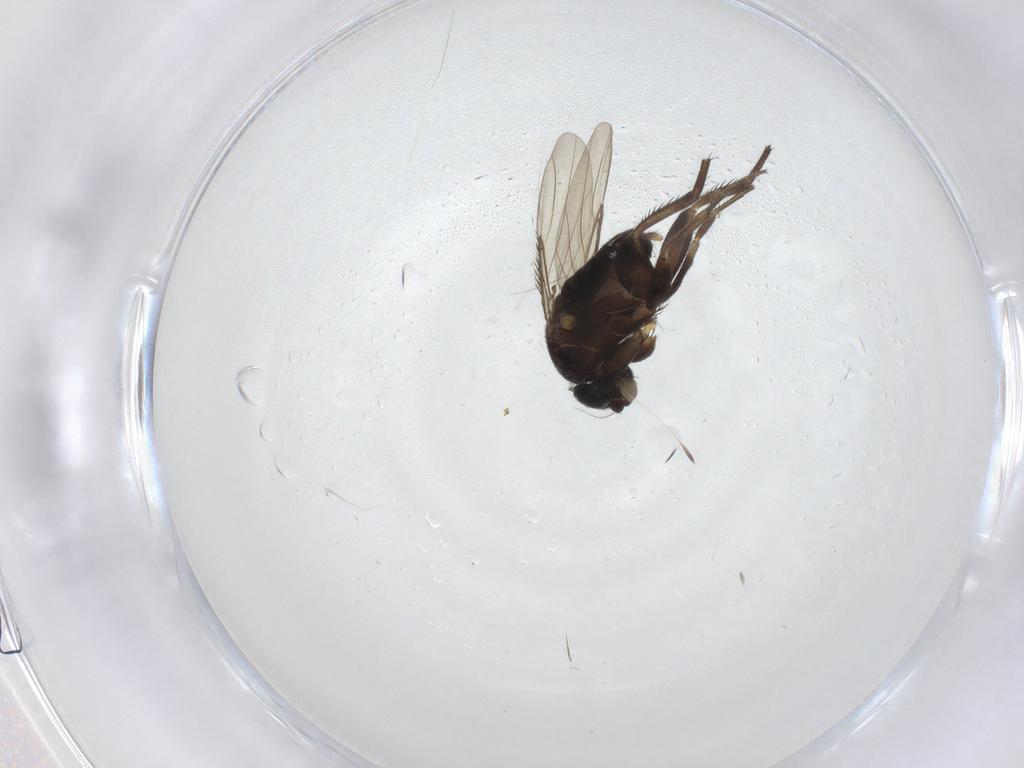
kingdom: Animalia
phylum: Arthropoda
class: Insecta
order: Diptera
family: Phoridae
